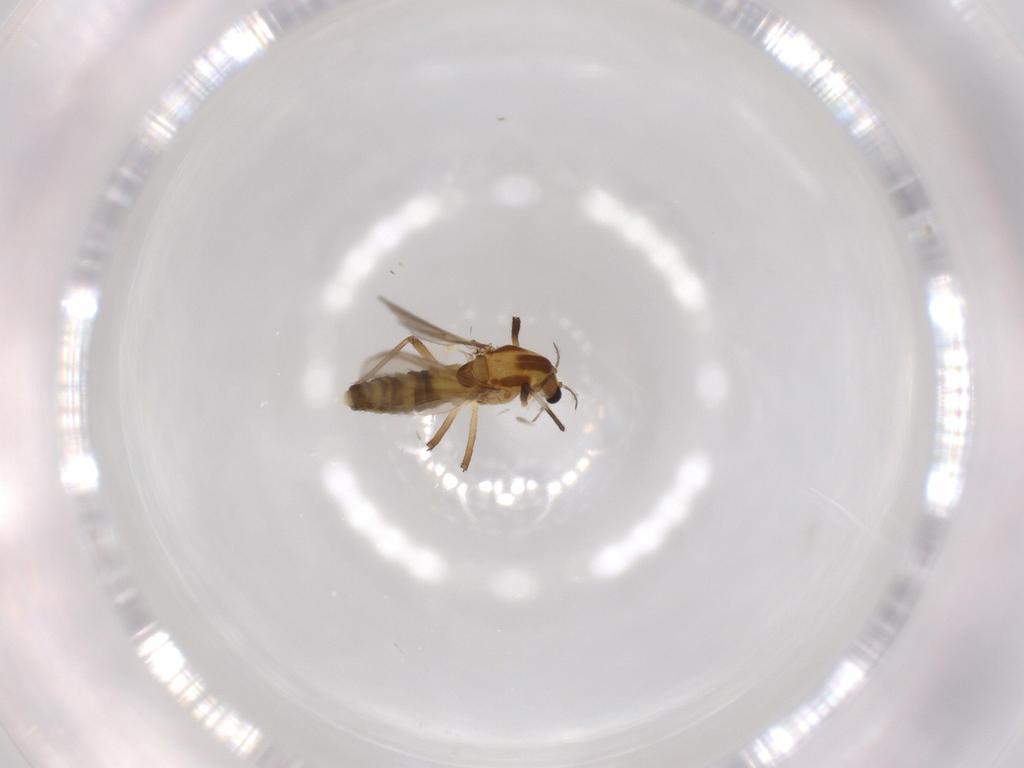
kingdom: Animalia
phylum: Arthropoda
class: Insecta
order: Diptera
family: Chironomidae
